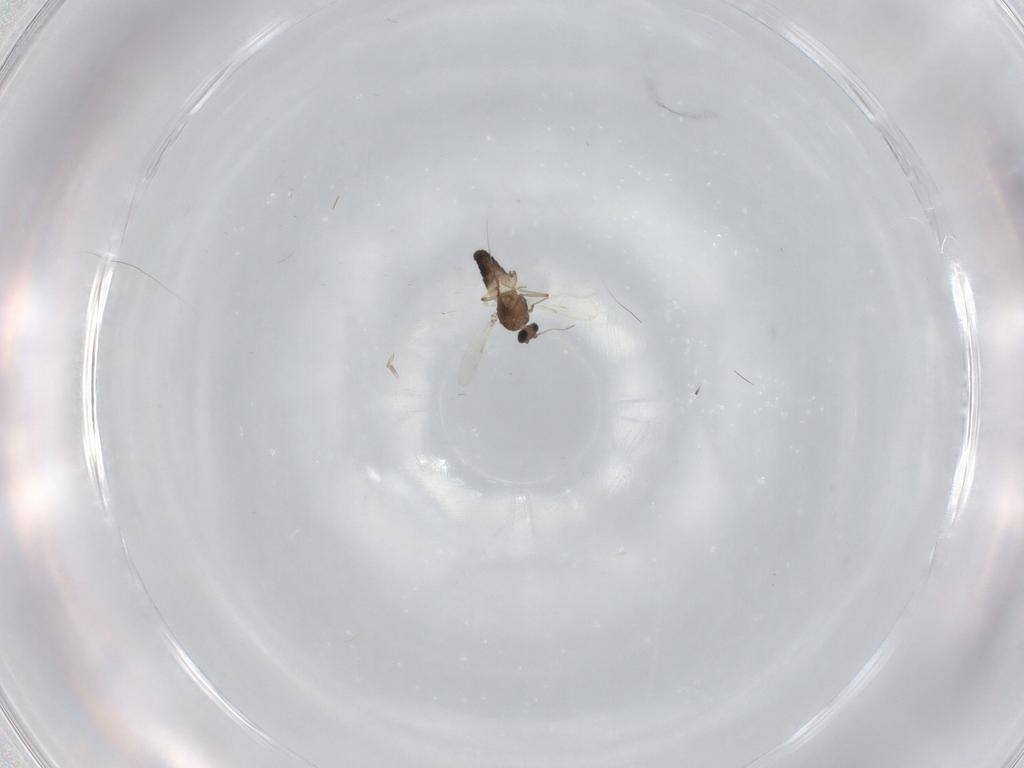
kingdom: Animalia
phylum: Arthropoda
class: Insecta
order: Diptera
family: Ceratopogonidae
